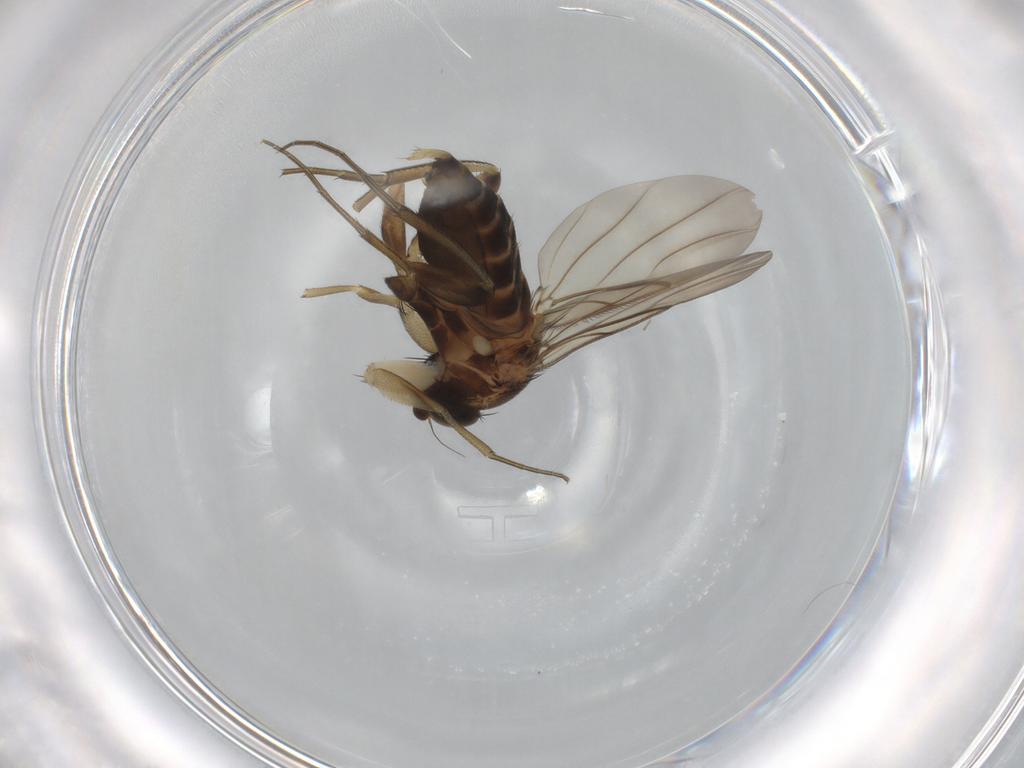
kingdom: Animalia
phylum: Arthropoda
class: Insecta
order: Diptera
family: Phoridae
